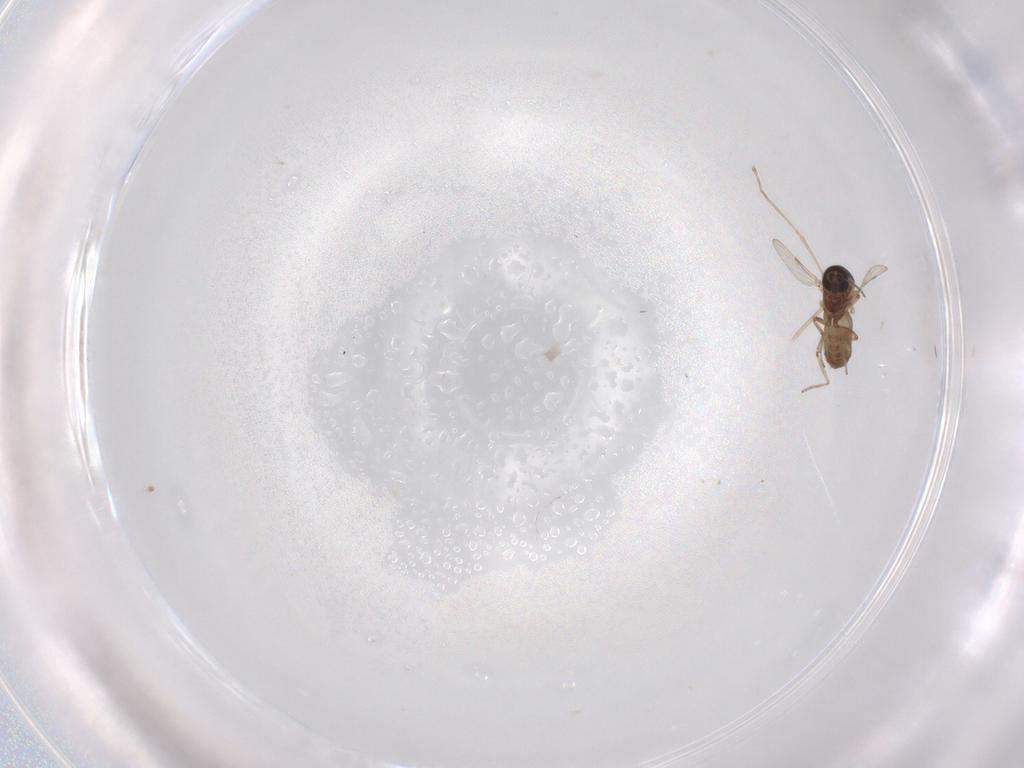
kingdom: Animalia
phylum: Arthropoda
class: Insecta
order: Diptera
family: Ceratopogonidae
